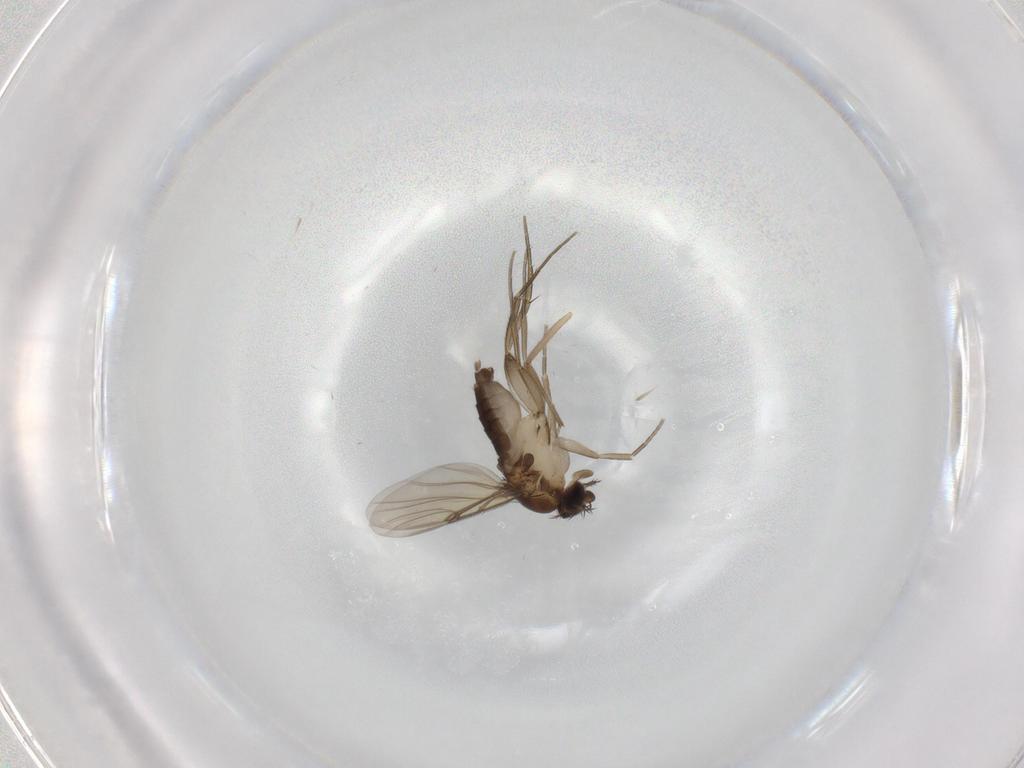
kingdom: Animalia
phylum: Arthropoda
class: Insecta
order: Diptera
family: Phoridae
